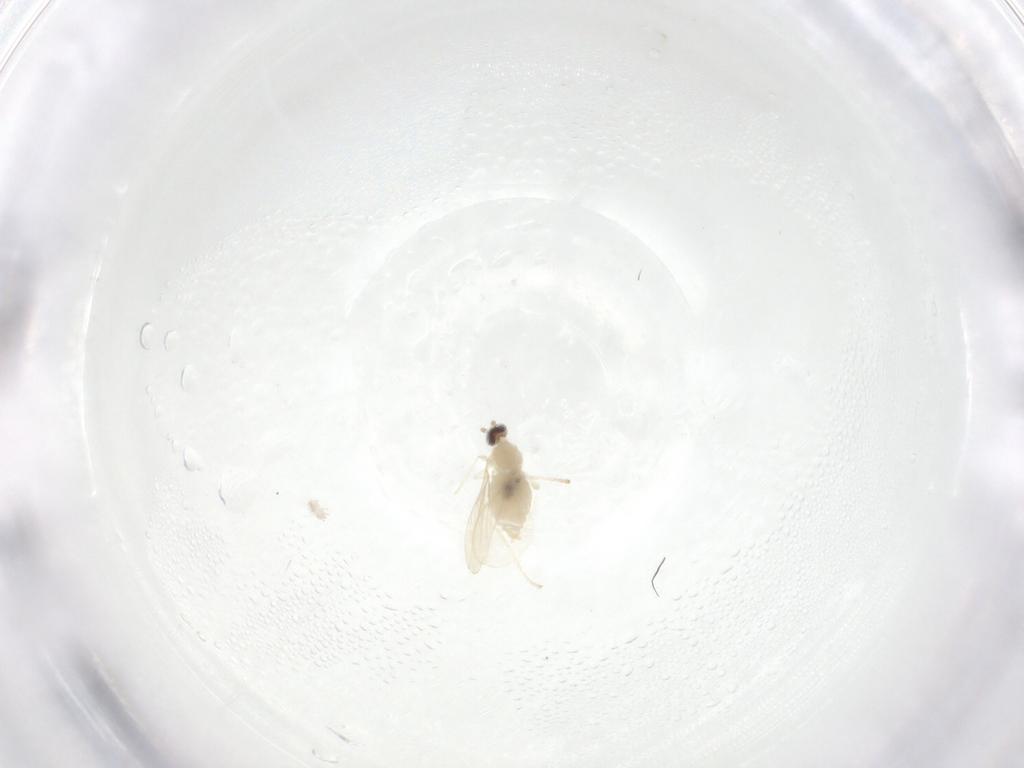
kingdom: Animalia
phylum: Arthropoda
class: Insecta
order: Diptera
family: Cecidomyiidae
